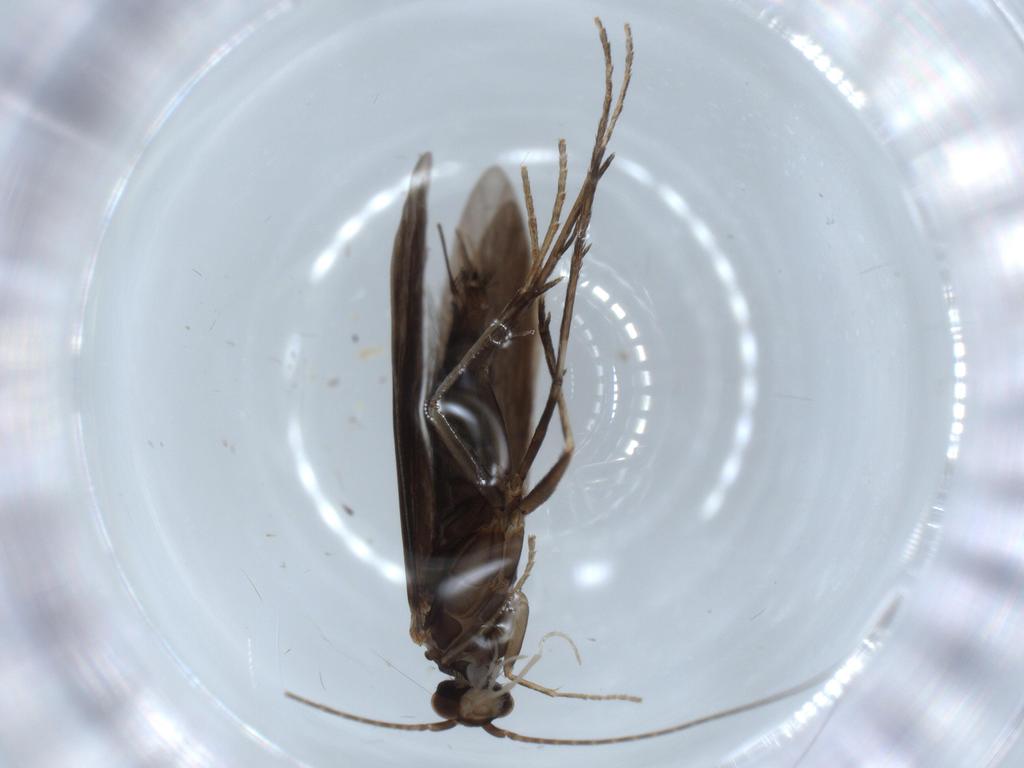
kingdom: Animalia
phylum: Arthropoda
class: Insecta
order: Trichoptera
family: Xiphocentronidae
